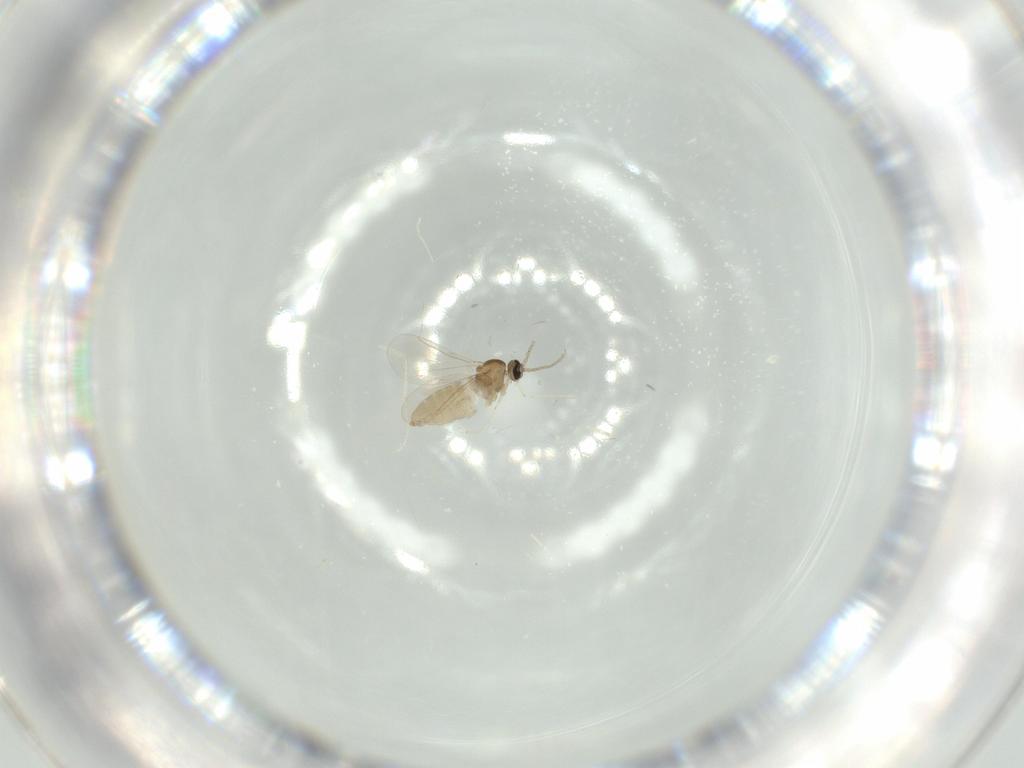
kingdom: Animalia
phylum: Arthropoda
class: Insecta
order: Diptera
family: Cecidomyiidae
